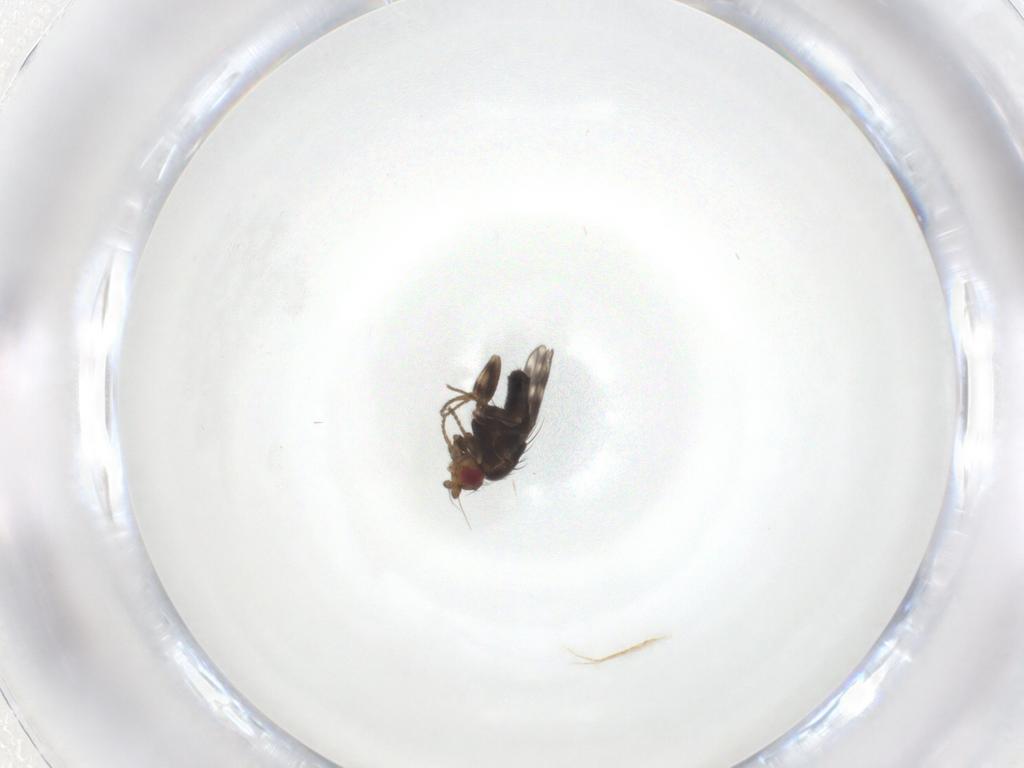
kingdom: Animalia
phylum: Arthropoda
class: Insecta
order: Diptera
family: Sphaeroceridae
